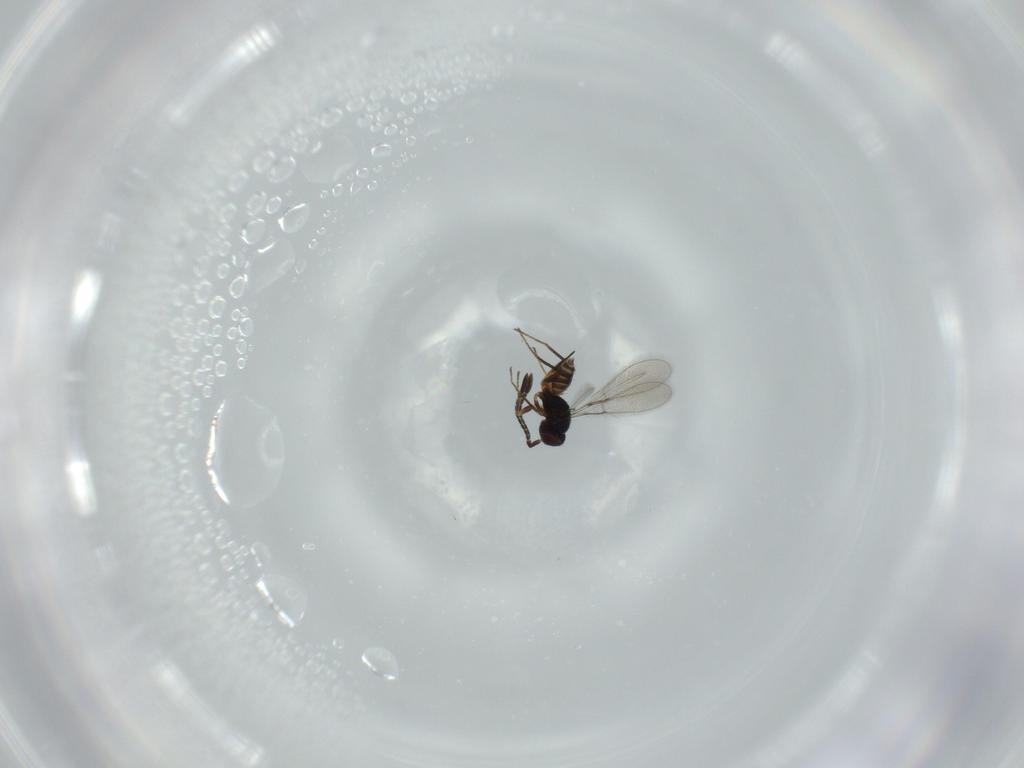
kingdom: Animalia
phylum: Arthropoda
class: Insecta
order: Hymenoptera
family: Mymaridae
